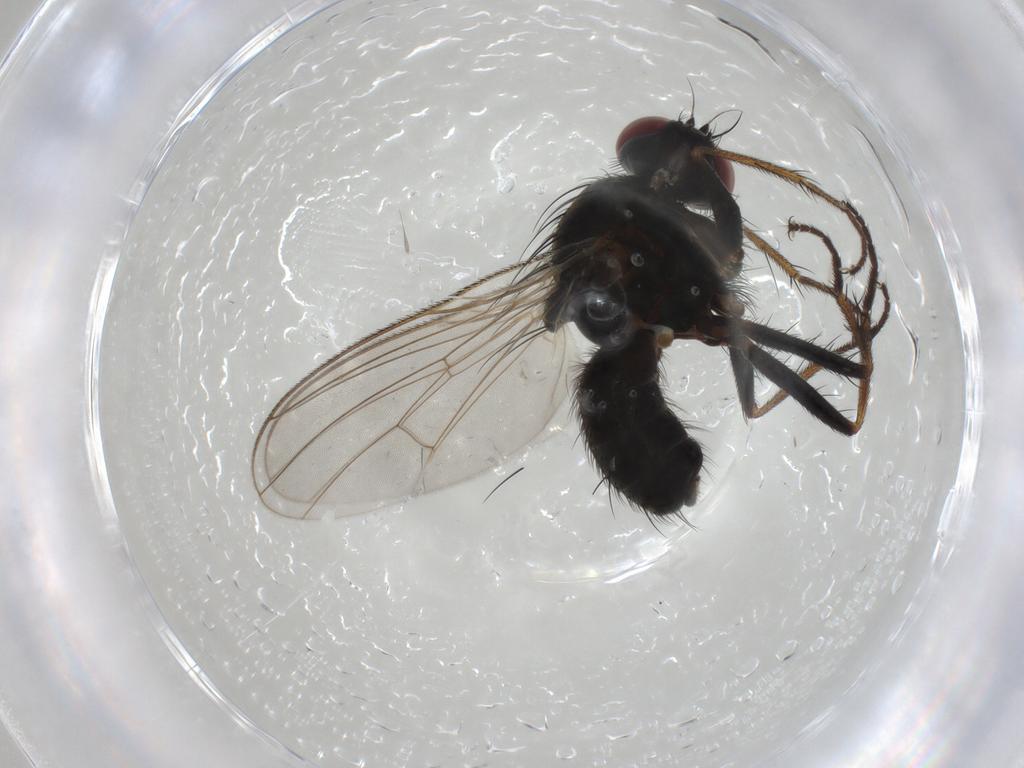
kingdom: Animalia
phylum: Arthropoda
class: Insecta
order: Diptera
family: Muscidae
